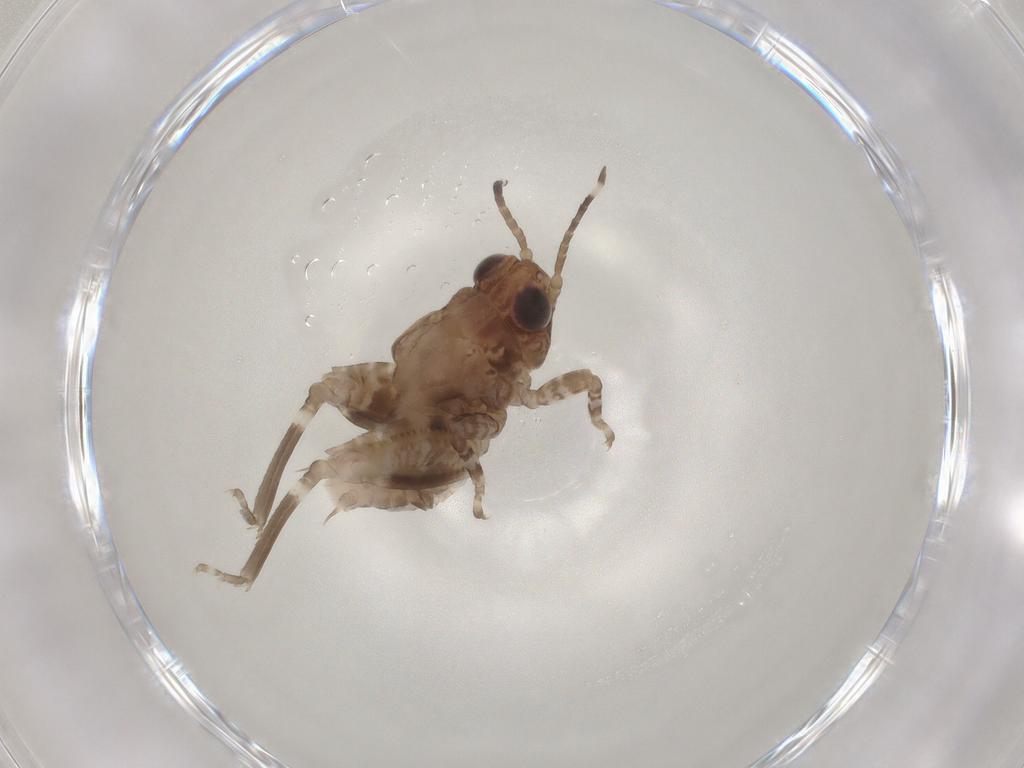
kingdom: Animalia
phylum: Arthropoda
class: Insecta
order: Orthoptera
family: Tetrigidae
